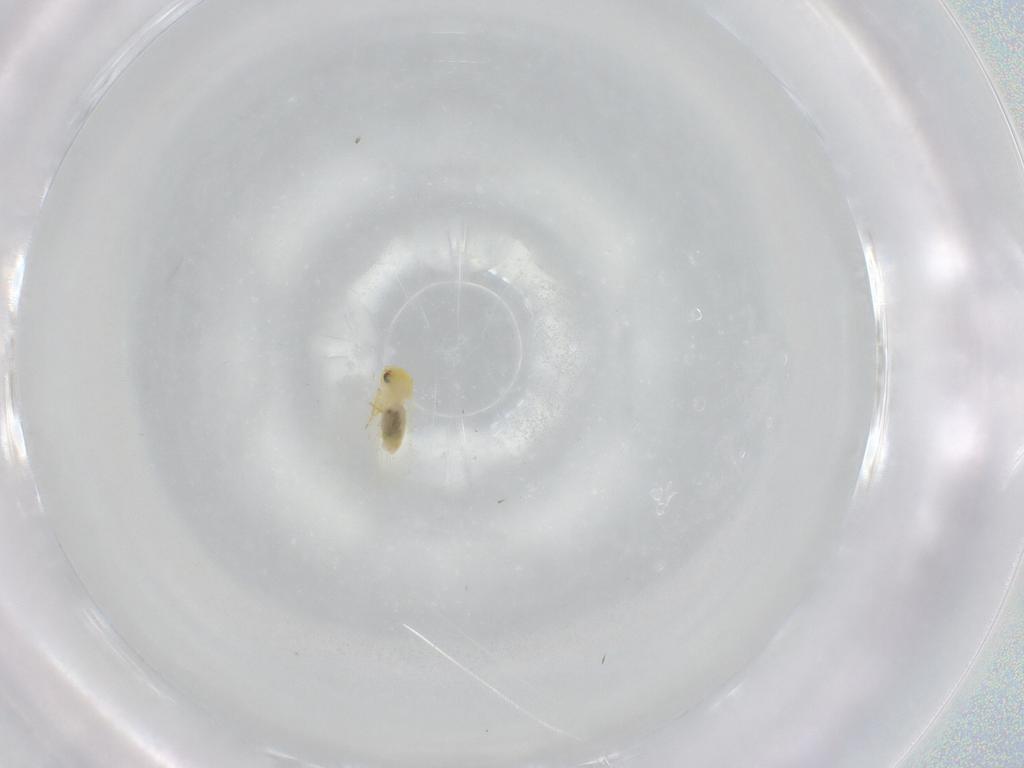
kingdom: Animalia
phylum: Arthropoda
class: Insecta
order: Hemiptera
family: Aleyrodidae
